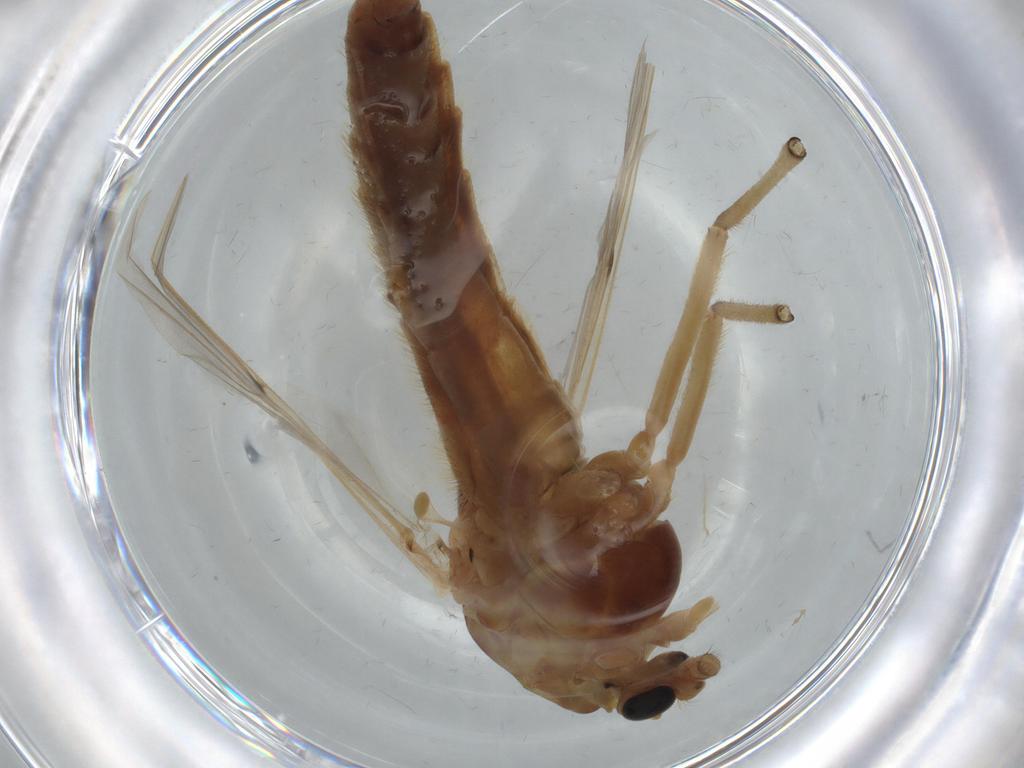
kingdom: Animalia
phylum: Arthropoda
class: Insecta
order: Diptera
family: Chironomidae
